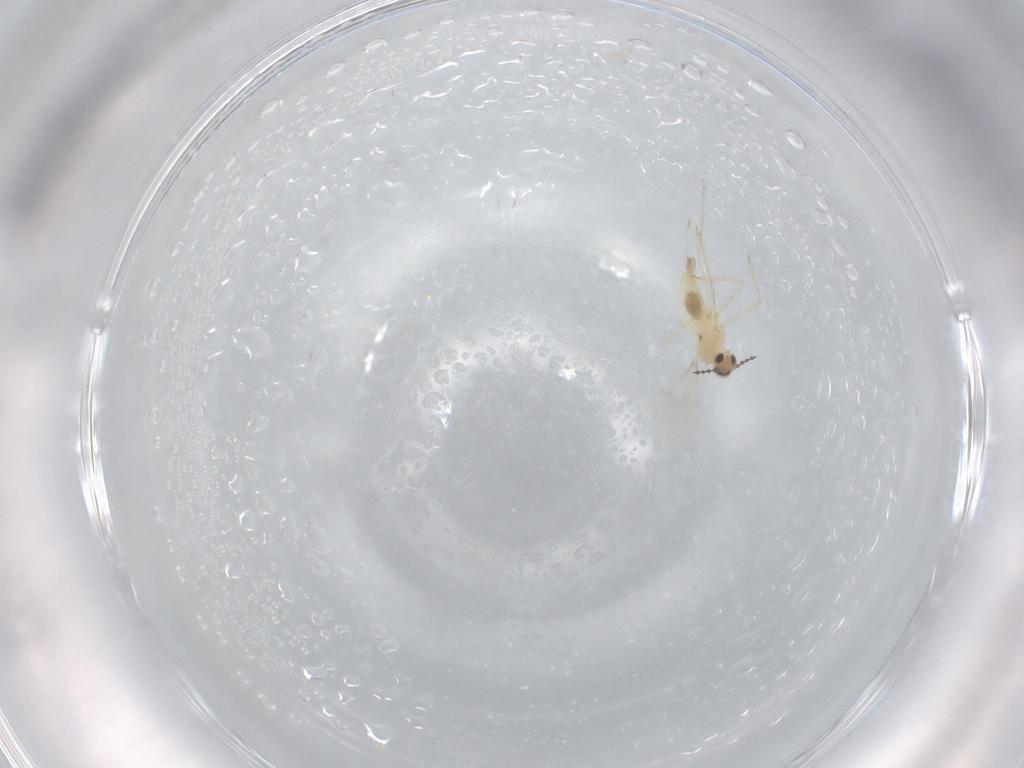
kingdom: Animalia
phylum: Arthropoda
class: Insecta
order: Diptera
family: Cecidomyiidae
